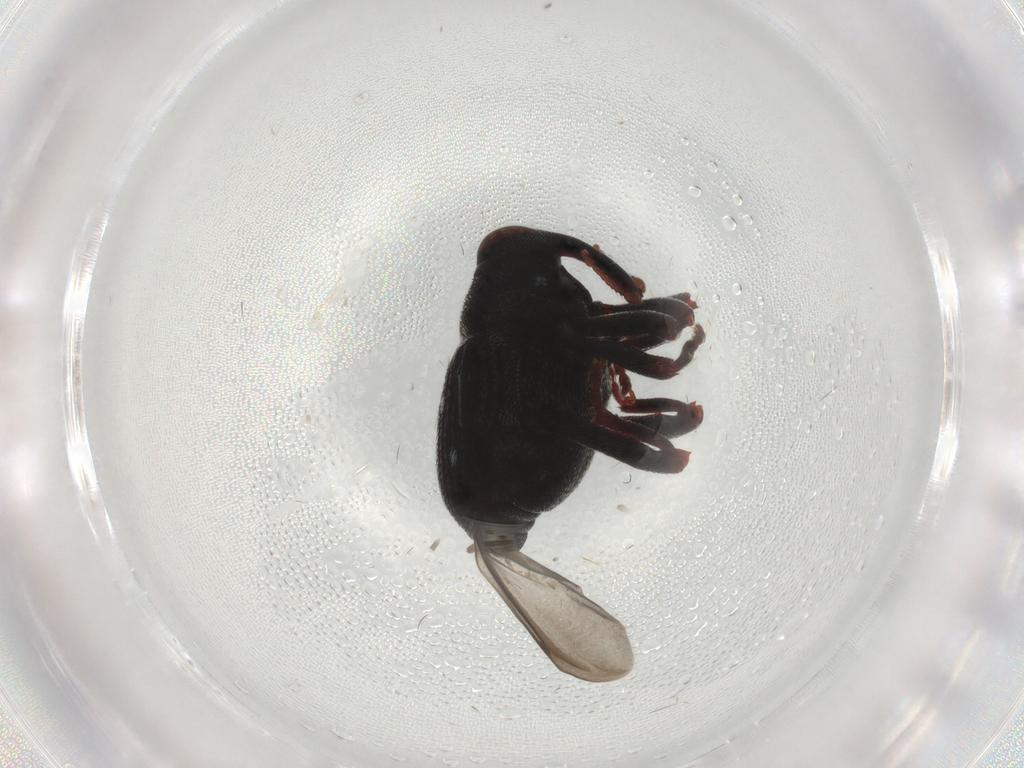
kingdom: Animalia
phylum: Arthropoda
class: Insecta
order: Coleoptera
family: Curculionidae
